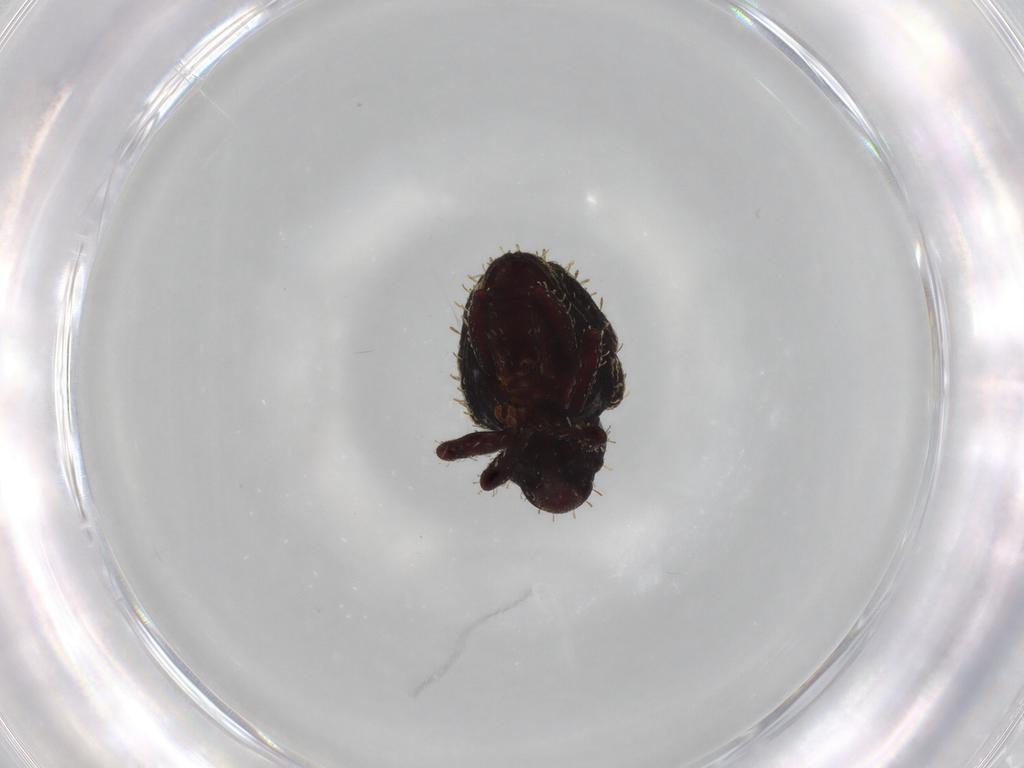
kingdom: Animalia
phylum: Arthropoda
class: Insecta
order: Coleoptera
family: Curculionidae
